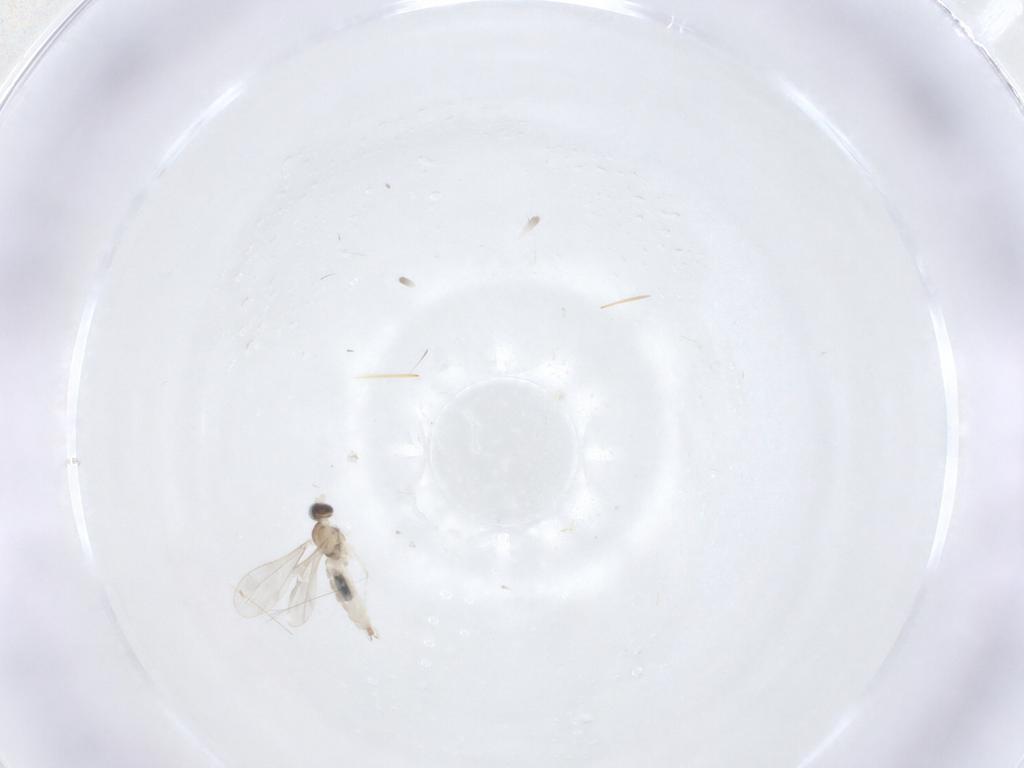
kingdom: Animalia
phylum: Arthropoda
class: Insecta
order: Diptera
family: Cecidomyiidae
